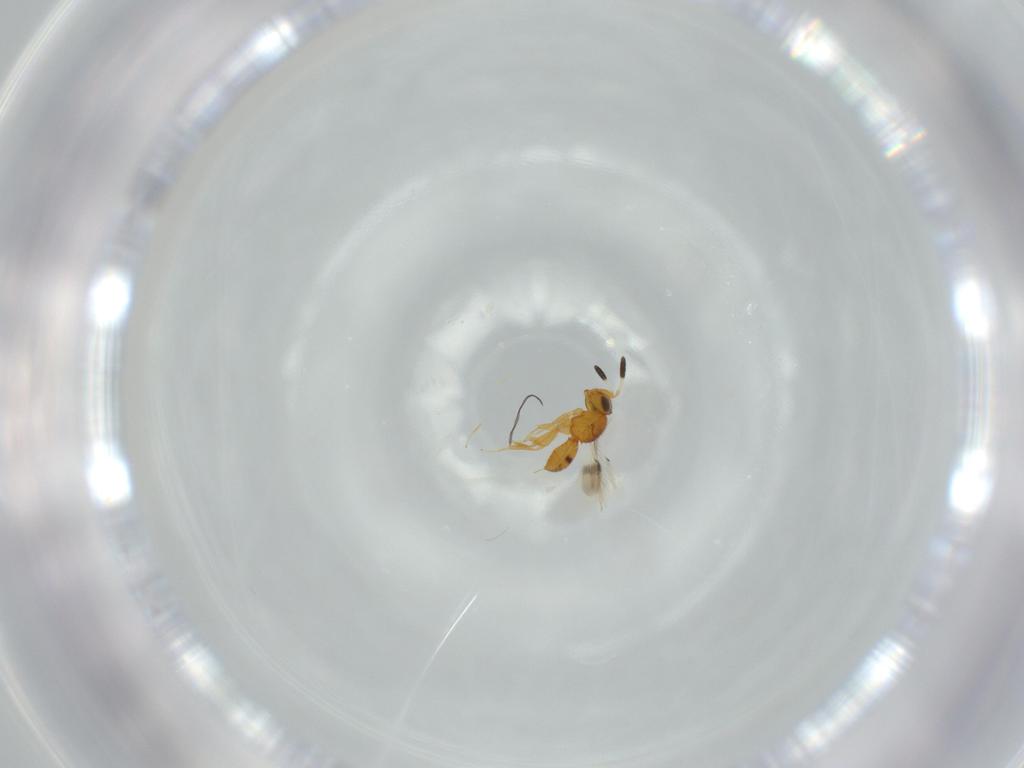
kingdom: Animalia
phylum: Arthropoda
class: Insecta
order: Hymenoptera
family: Scelionidae
